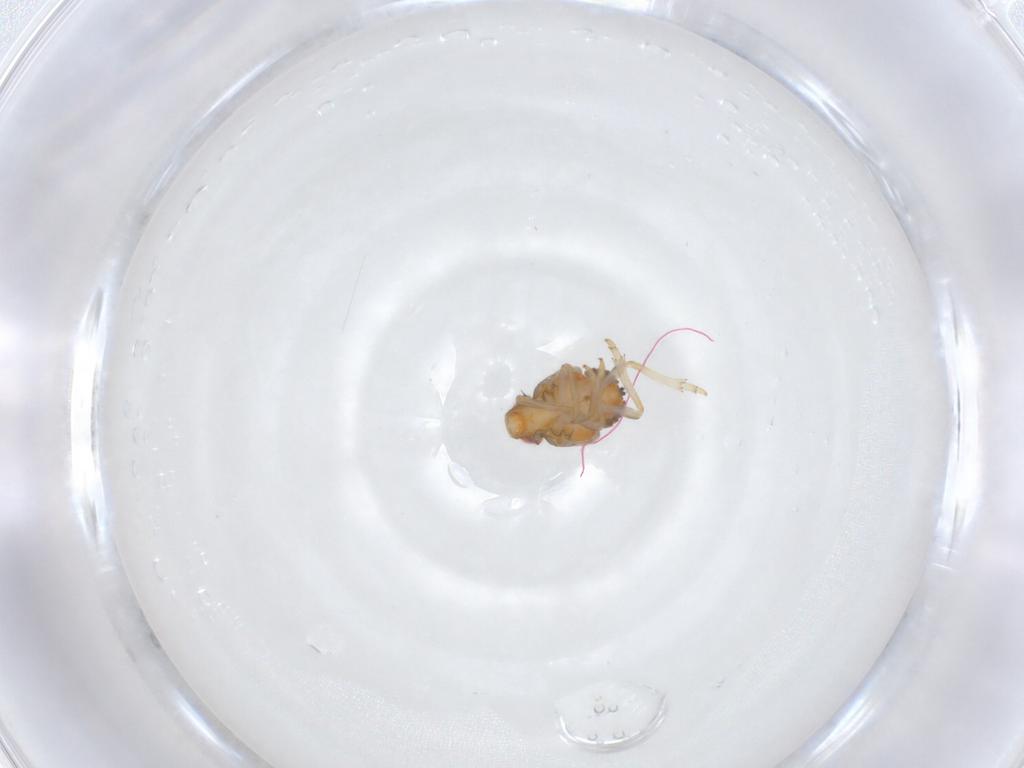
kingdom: Animalia
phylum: Arthropoda
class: Insecta
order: Hemiptera
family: Issidae
